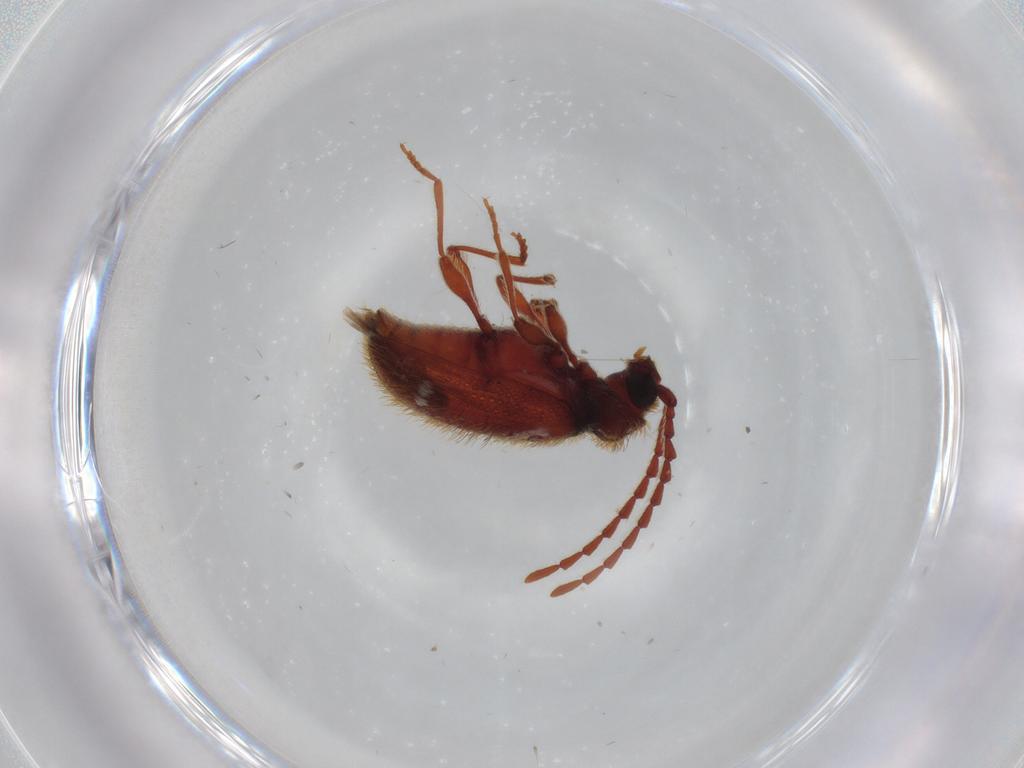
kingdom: Animalia
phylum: Arthropoda
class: Insecta
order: Coleoptera
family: Ptinidae
